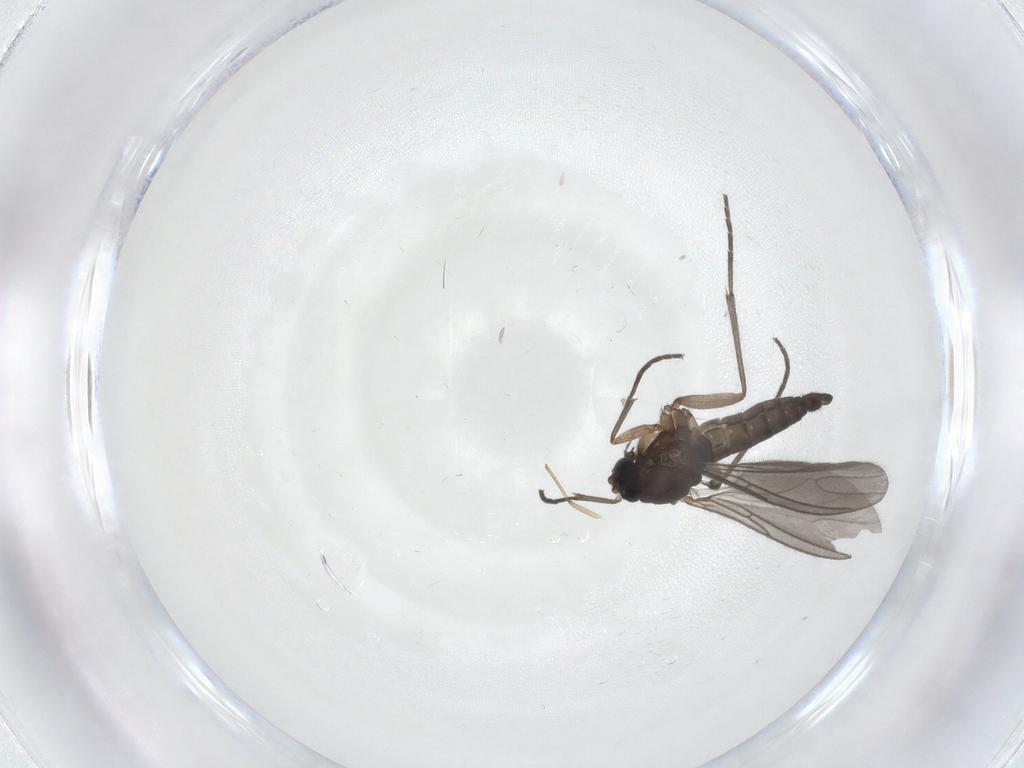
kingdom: Animalia
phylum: Arthropoda
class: Insecta
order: Diptera
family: Sciaridae
